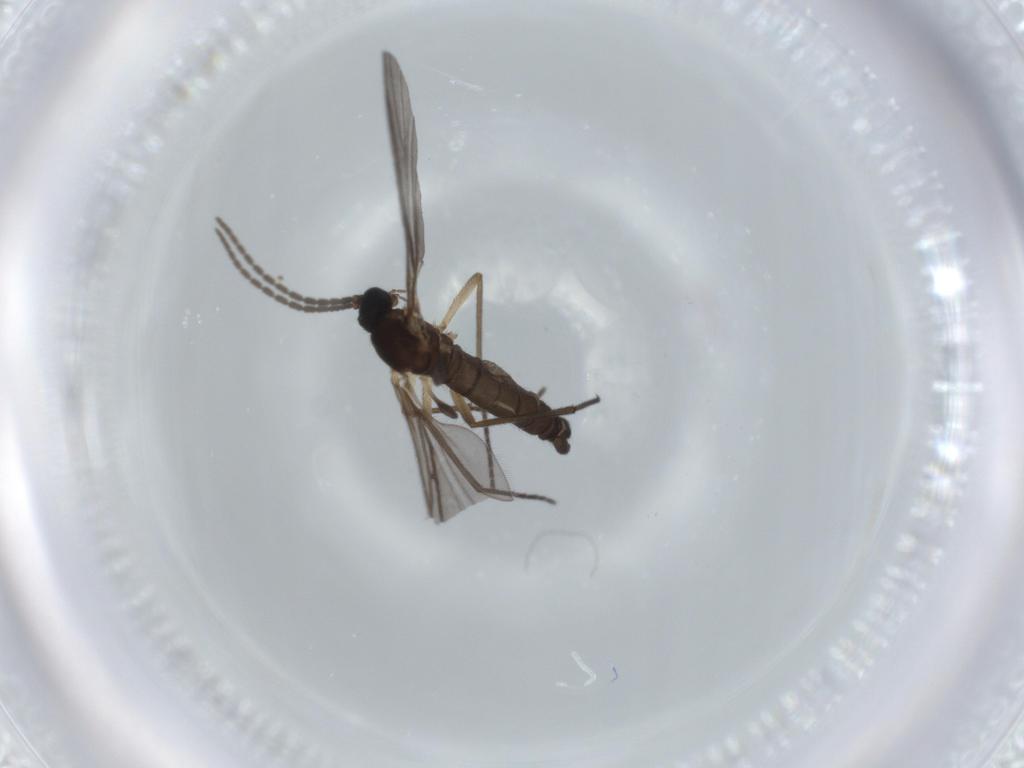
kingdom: Animalia
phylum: Arthropoda
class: Insecta
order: Diptera
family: Sciaridae
